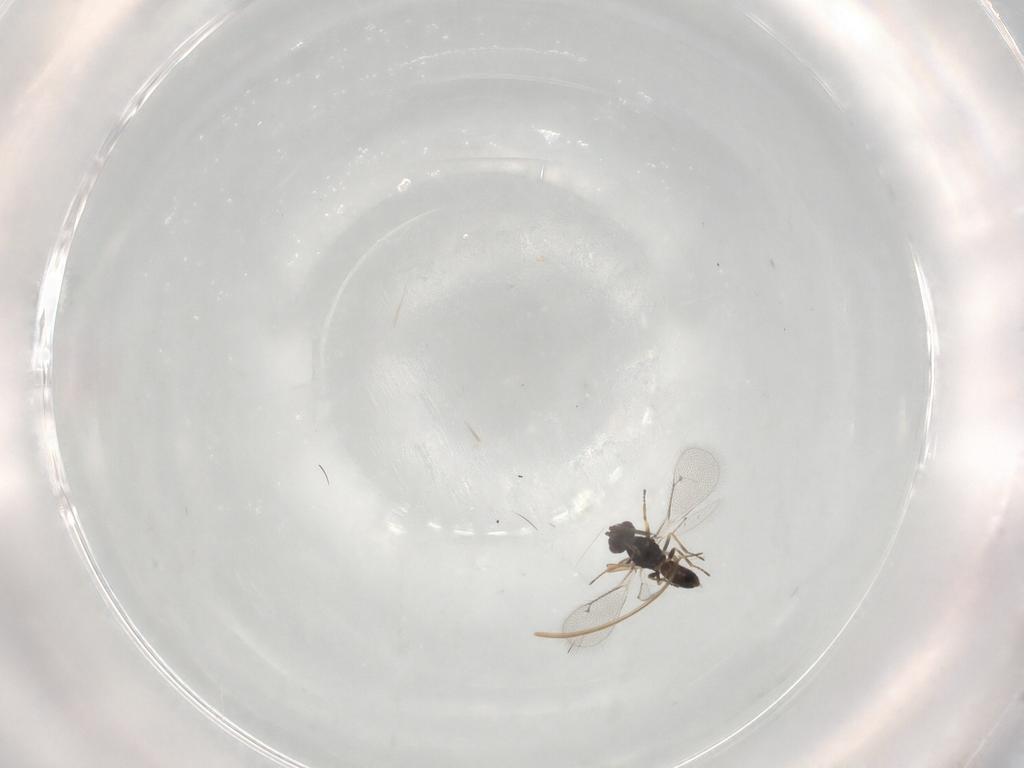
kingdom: Animalia
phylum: Arthropoda
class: Insecta
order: Hymenoptera
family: Eulophidae
